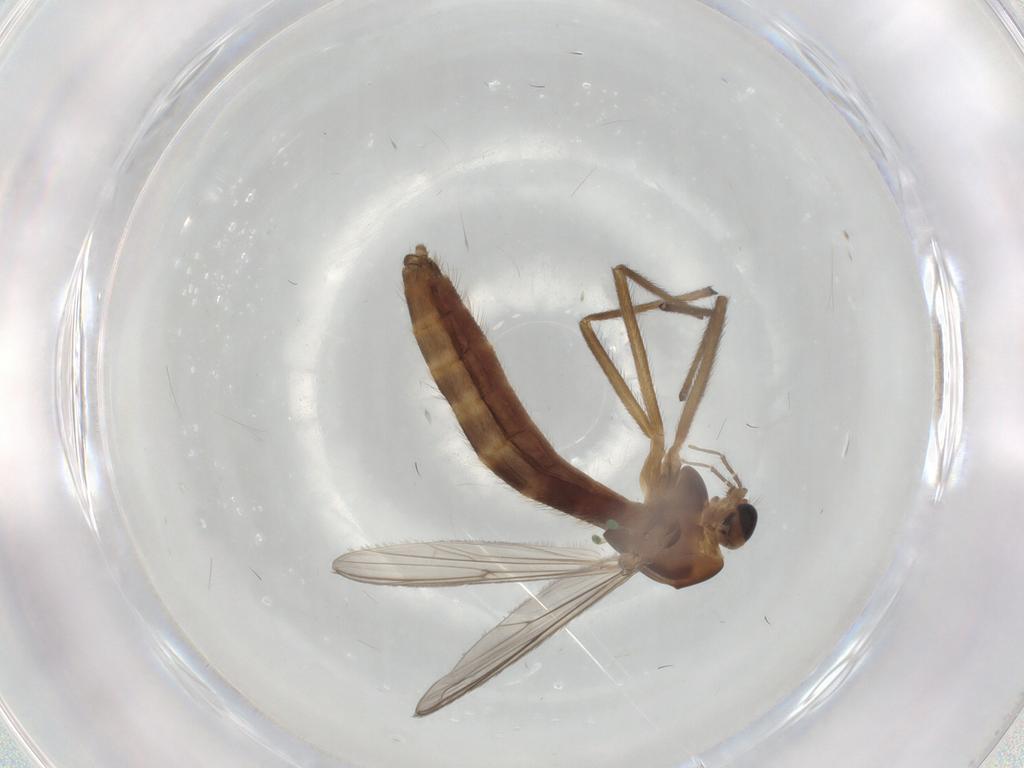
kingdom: Animalia
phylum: Arthropoda
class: Insecta
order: Diptera
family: Chironomidae
